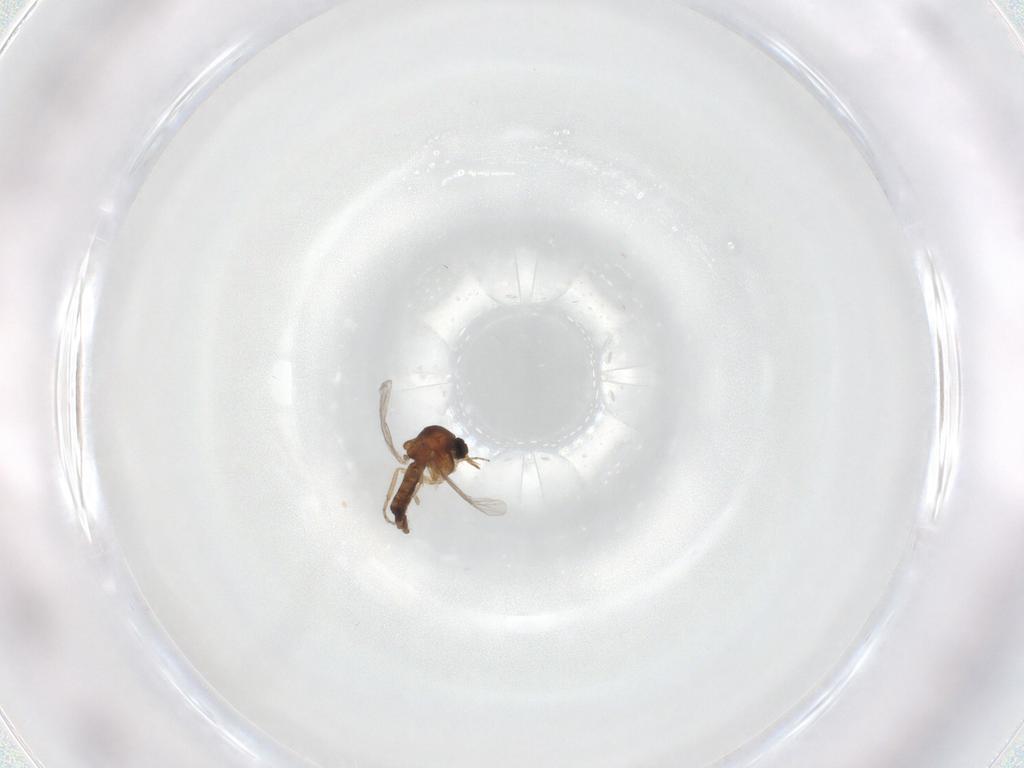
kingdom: Animalia
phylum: Arthropoda
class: Insecta
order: Diptera
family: Ceratopogonidae
